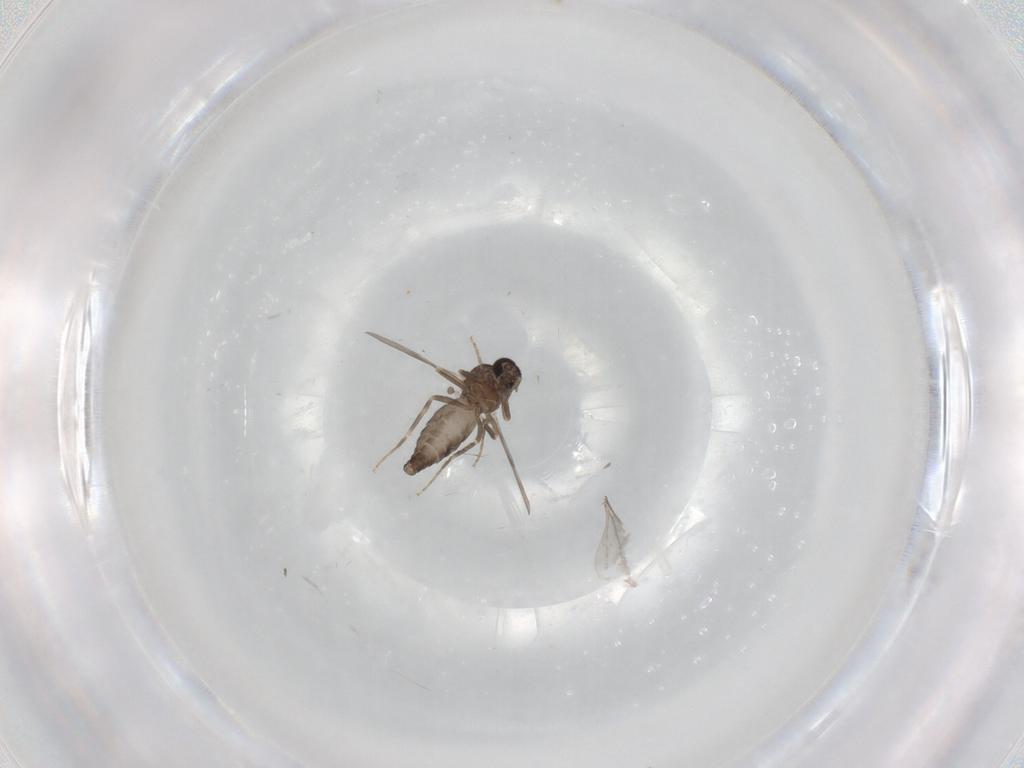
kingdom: Animalia
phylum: Arthropoda
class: Insecta
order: Diptera
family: Ceratopogonidae
